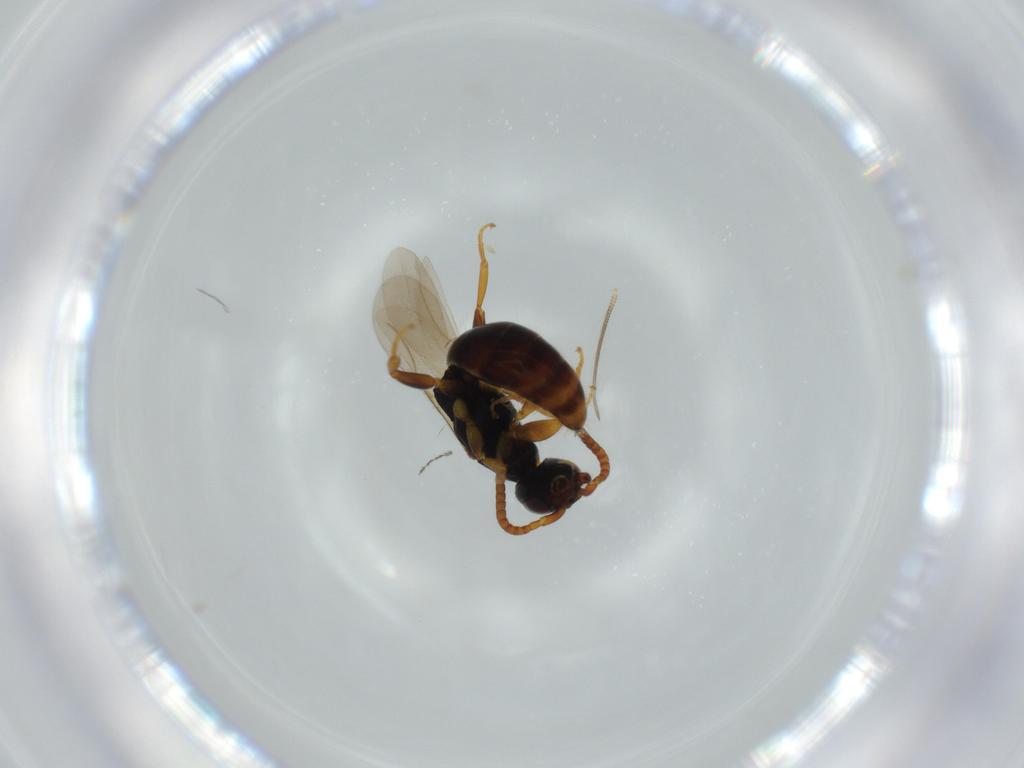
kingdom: Animalia
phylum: Arthropoda
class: Insecta
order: Hymenoptera
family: Bethylidae
